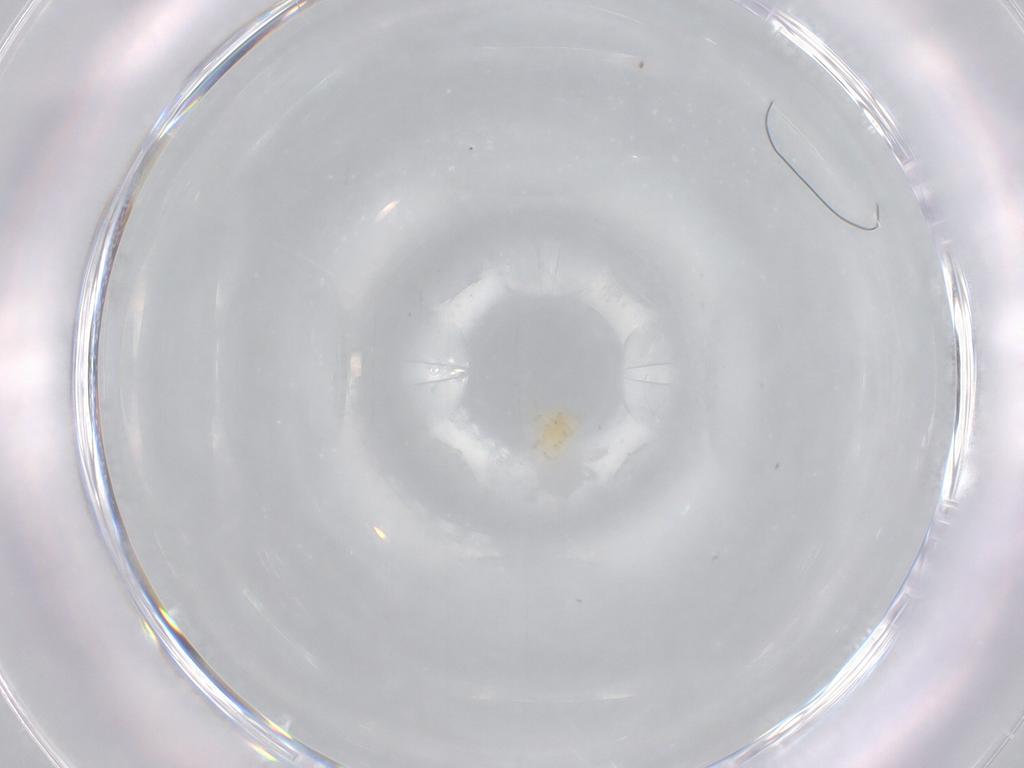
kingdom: Animalia
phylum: Arthropoda
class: Arachnida
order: Trombidiformes
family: Microtrombidiidae
